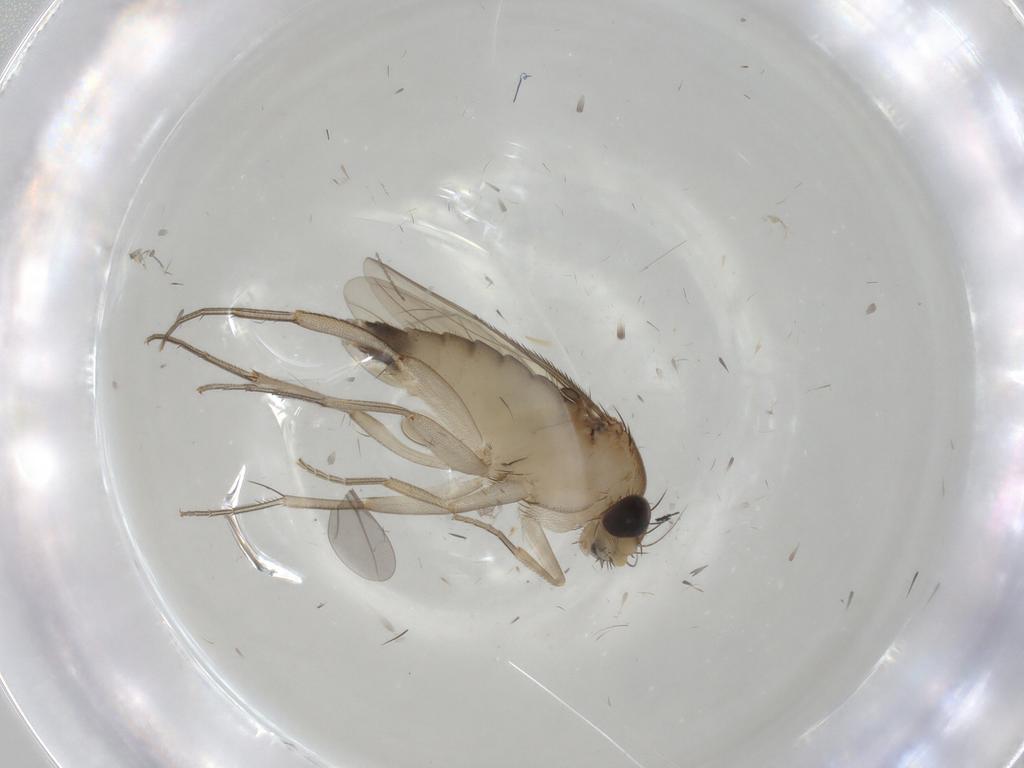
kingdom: Animalia
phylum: Arthropoda
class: Insecta
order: Diptera
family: Phoridae
